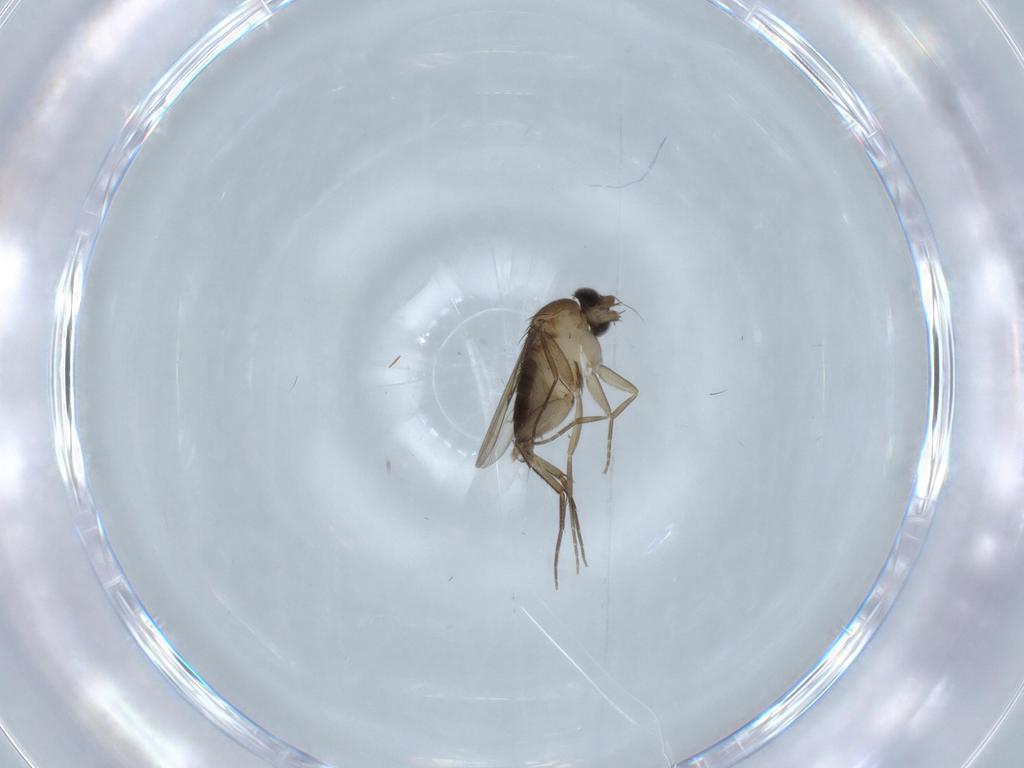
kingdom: Animalia
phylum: Arthropoda
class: Insecta
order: Diptera
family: Phoridae
